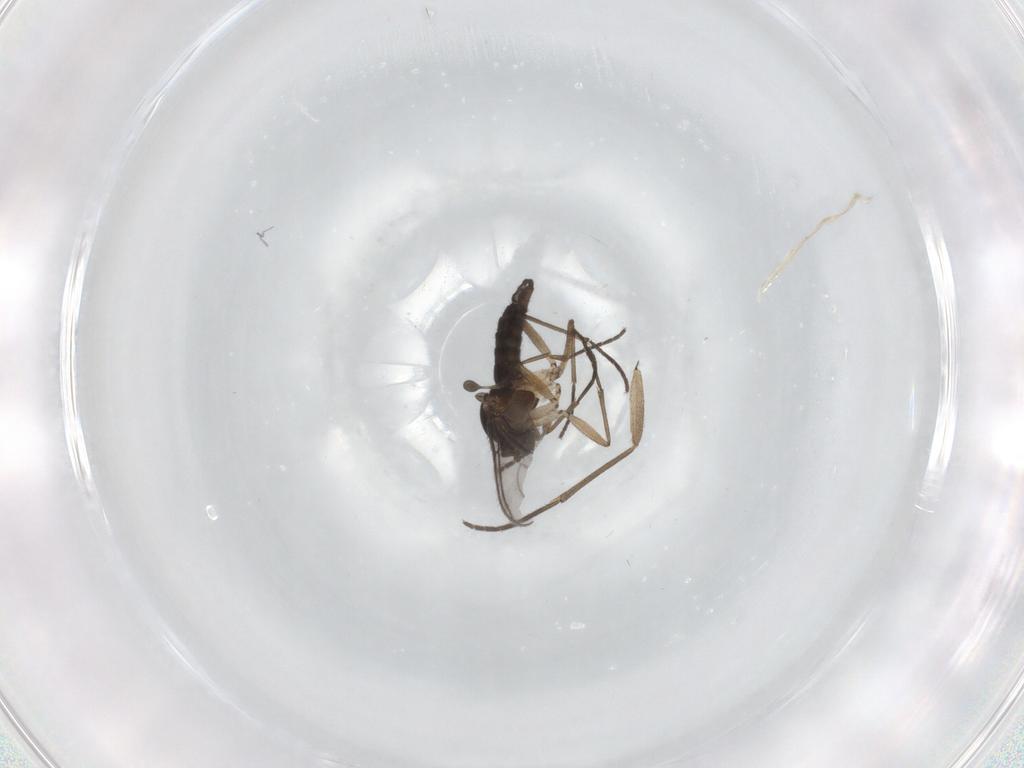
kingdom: Animalia
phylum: Arthropoda
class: Insecta
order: Diptera
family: Sciaridae
